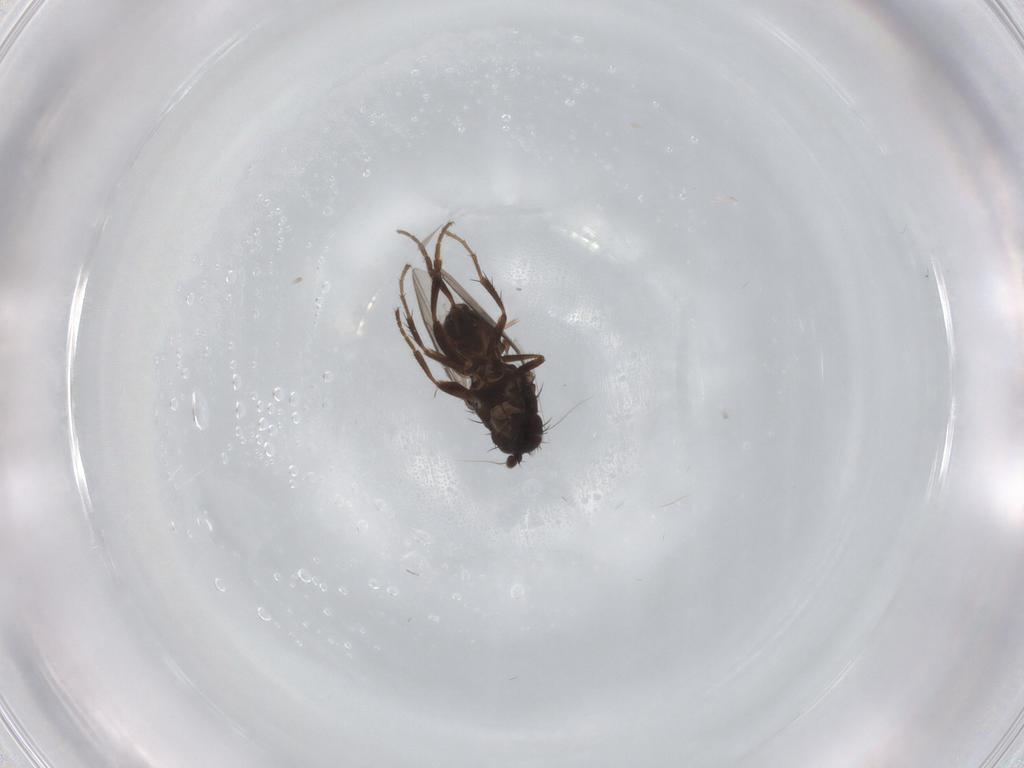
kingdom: Animalia
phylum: Arthropoda
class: Insecta
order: Diptera
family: Sphaeroceridae
